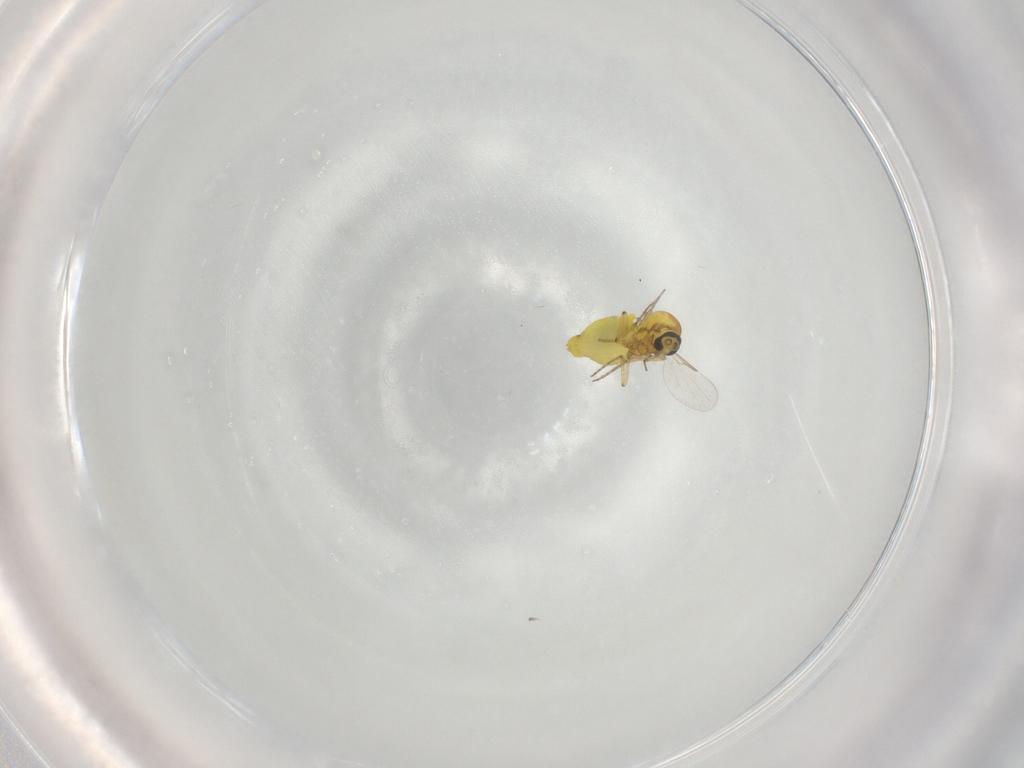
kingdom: Animalia
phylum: Arthropoda
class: Insecta
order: Diptera
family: Ceratopogonidae
